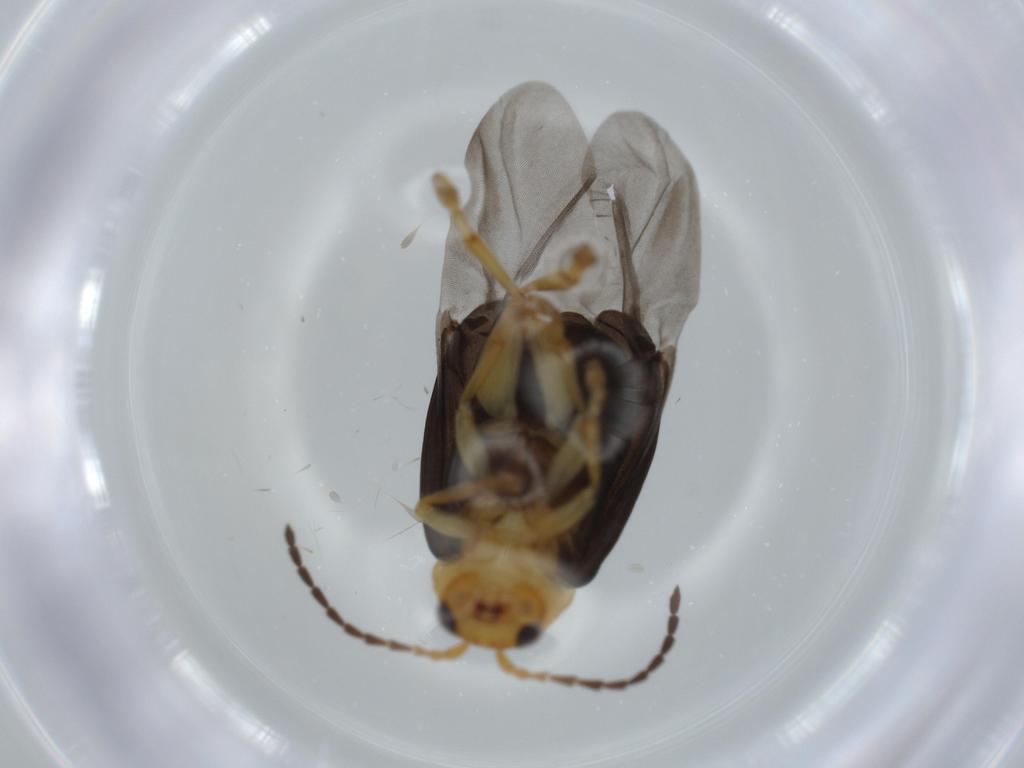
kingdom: Animalia
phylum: Arthropoda
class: Insecta
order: Coleoptera
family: Chrysomelidae
